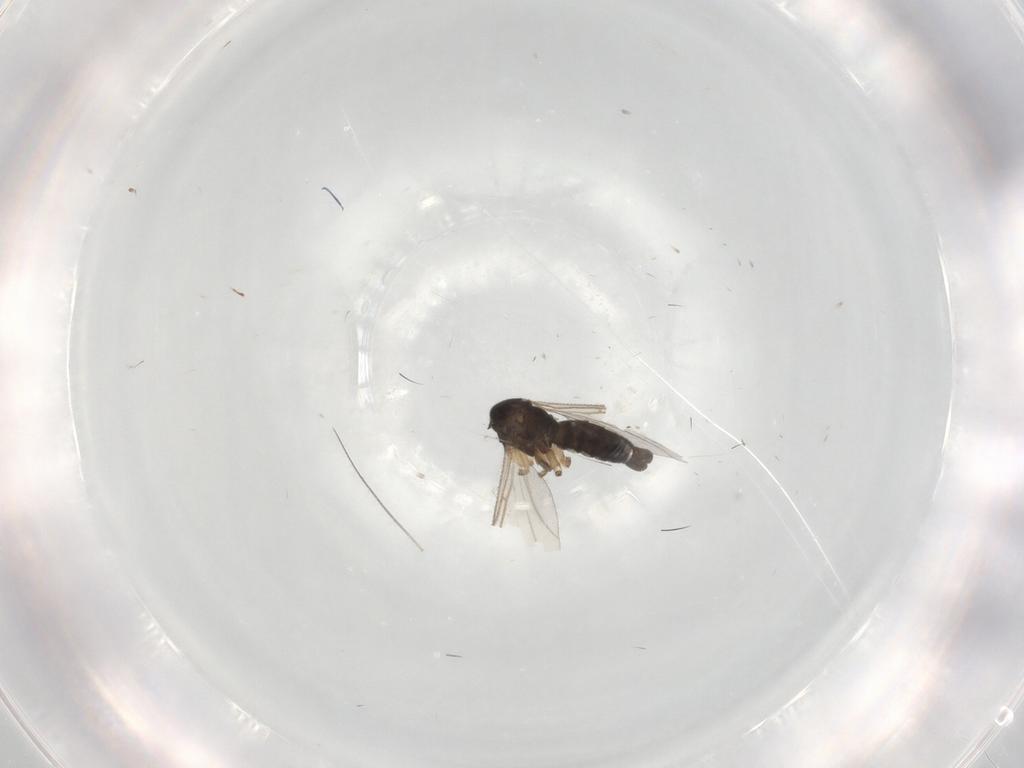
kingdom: Animalia
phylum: Arthropoda
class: Insecta
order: Diptera
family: Sciaridae
